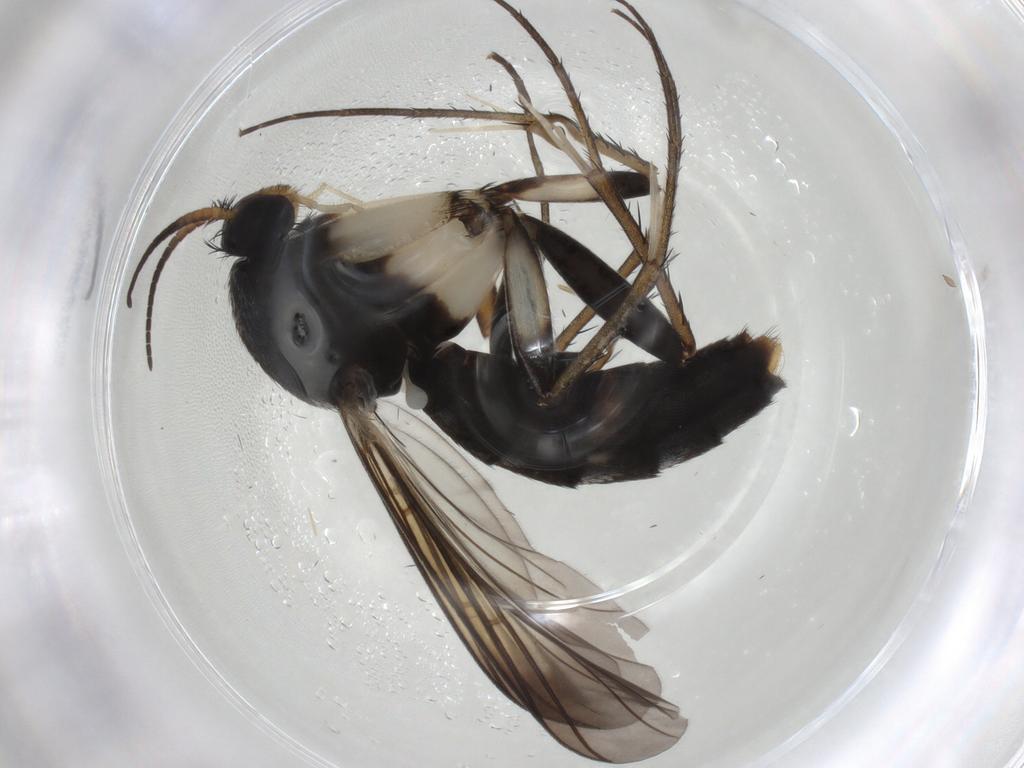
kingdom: Animalia
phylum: Arthropoda
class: Insecta
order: Diptera
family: Mycetophilidae
